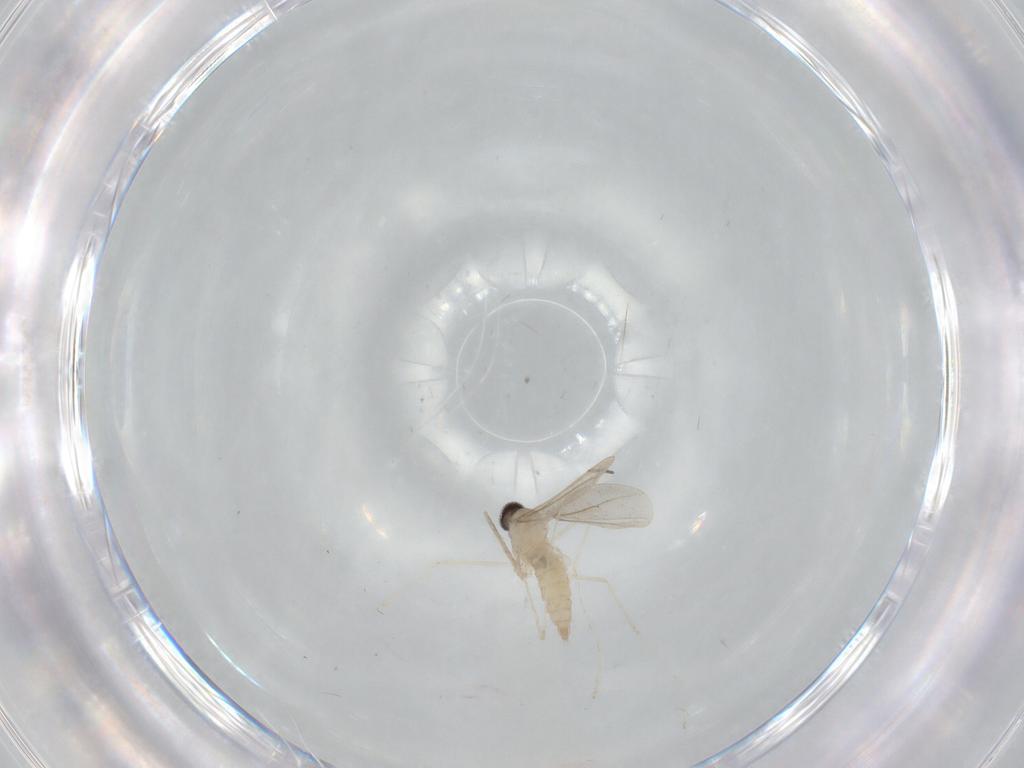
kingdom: Animalia
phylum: Arthropoda
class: Insecta
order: Diptera
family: Cecidomyiidae
